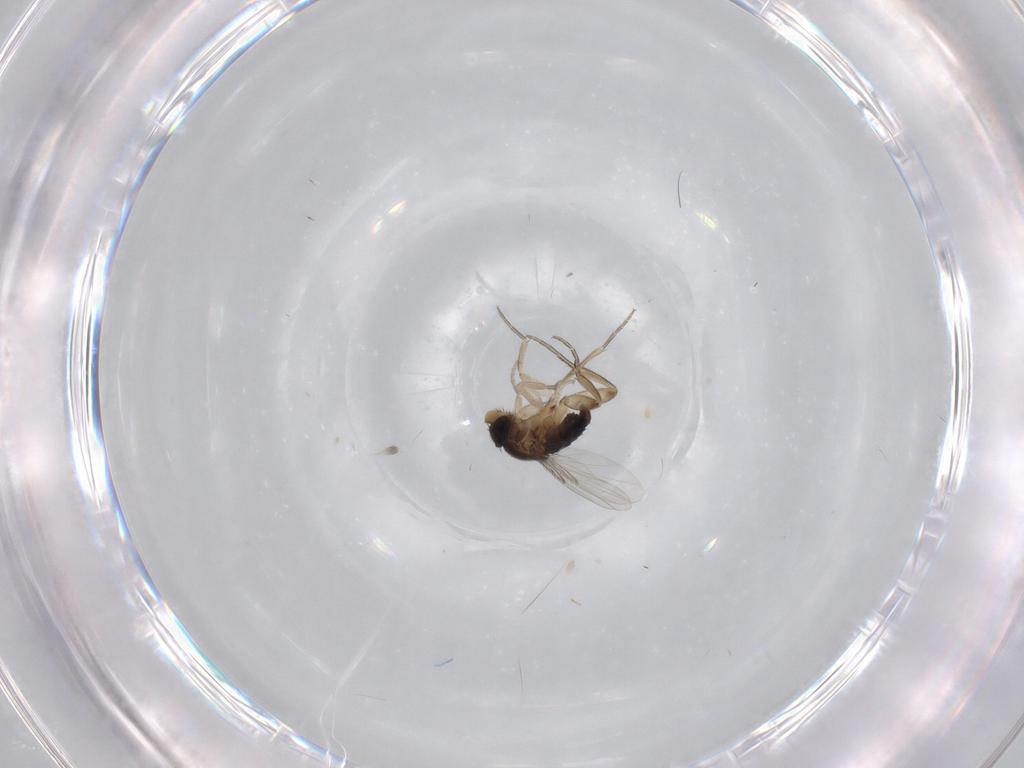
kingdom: Animalia
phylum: Arthropoda
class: Insecta
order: Diptera
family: Phoridae
